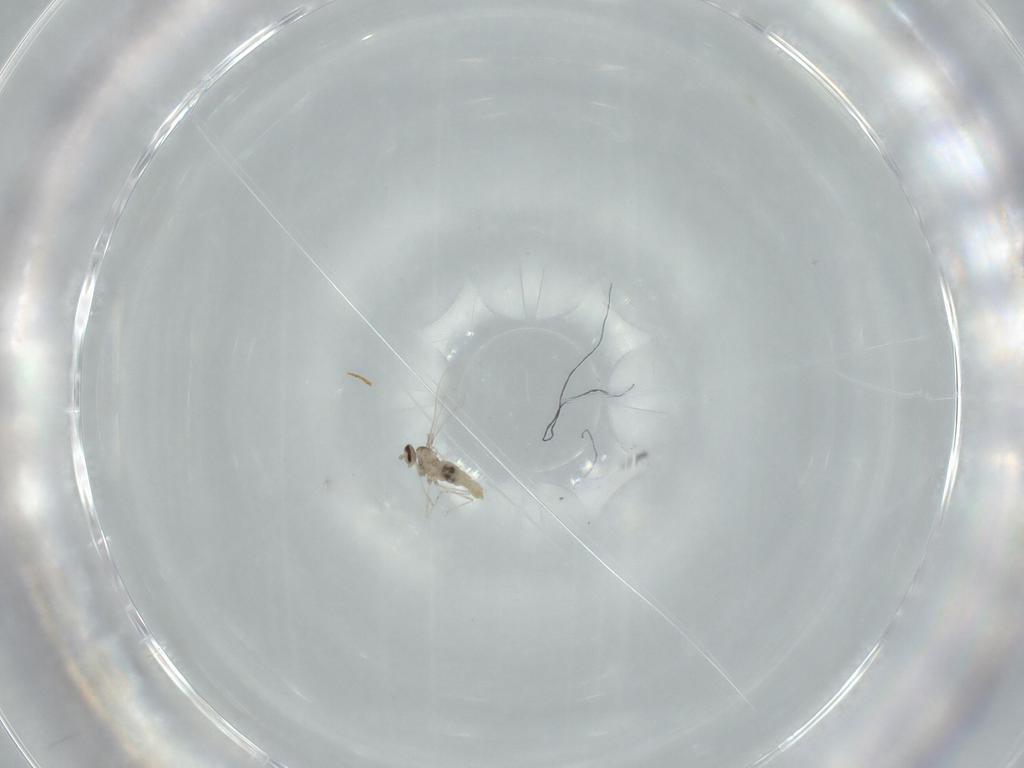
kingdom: Animalia
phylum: Arthropoda
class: Insecta
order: Diptera
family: Cecidomyiidae
